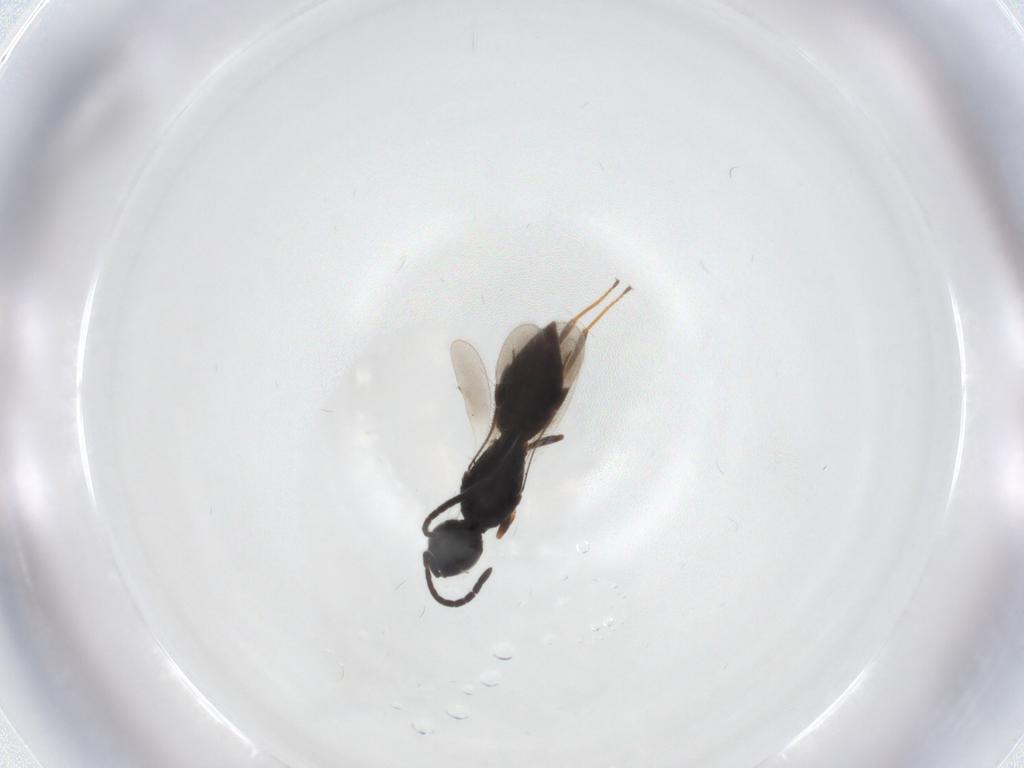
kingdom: Animalia
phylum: Arthropoda
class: Insecta
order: Hymenoptera
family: Megaspilidae
